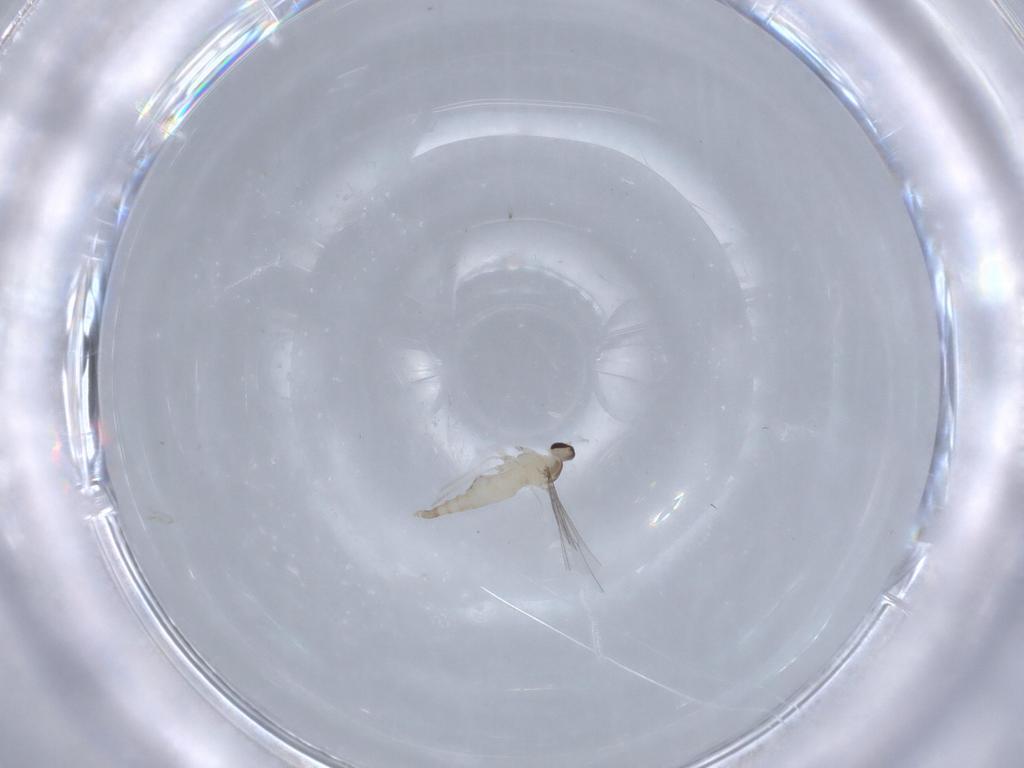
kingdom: Animalia
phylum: Arthropoda
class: Insecta
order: Diptera
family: Cecidomyiidae
